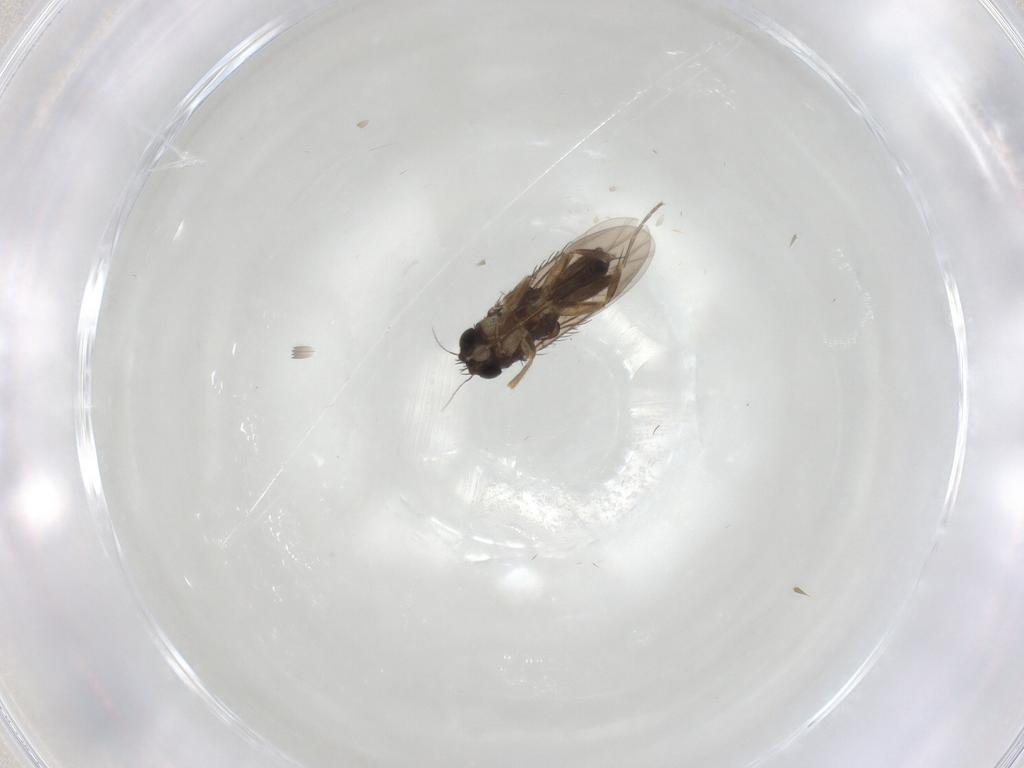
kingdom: Animalia
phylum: Arthropoda
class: Insecta
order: Diptera
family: Phoridae
